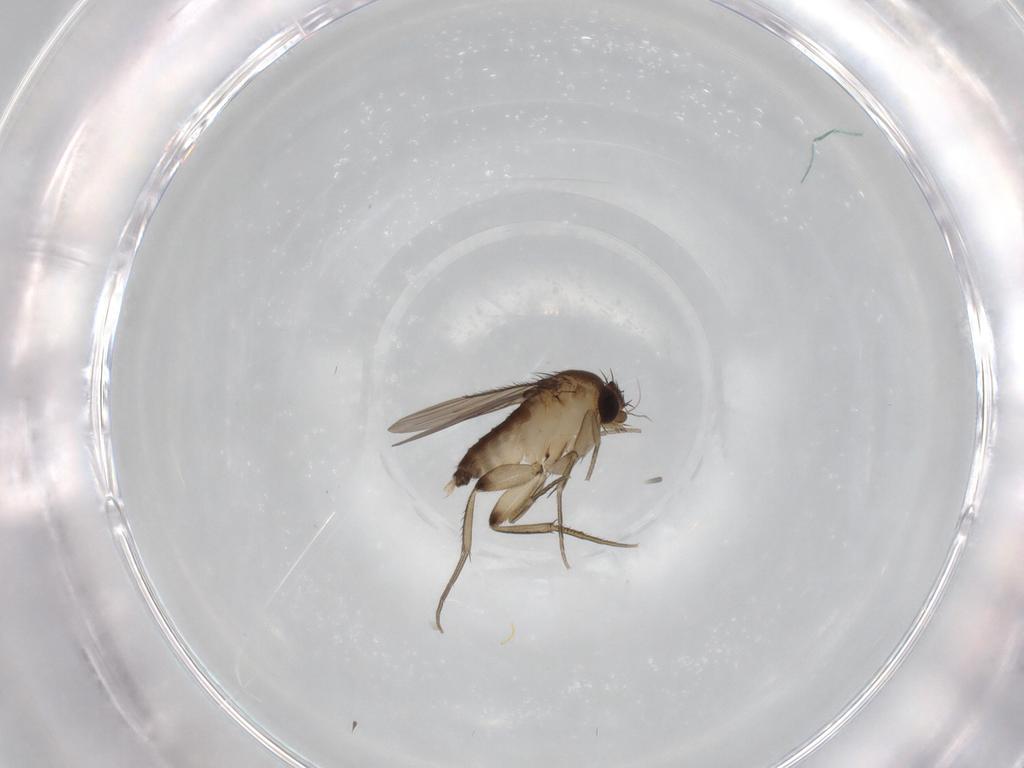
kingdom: Animalia
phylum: Arthropoda
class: Insecta
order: Diptera
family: Phoridae
